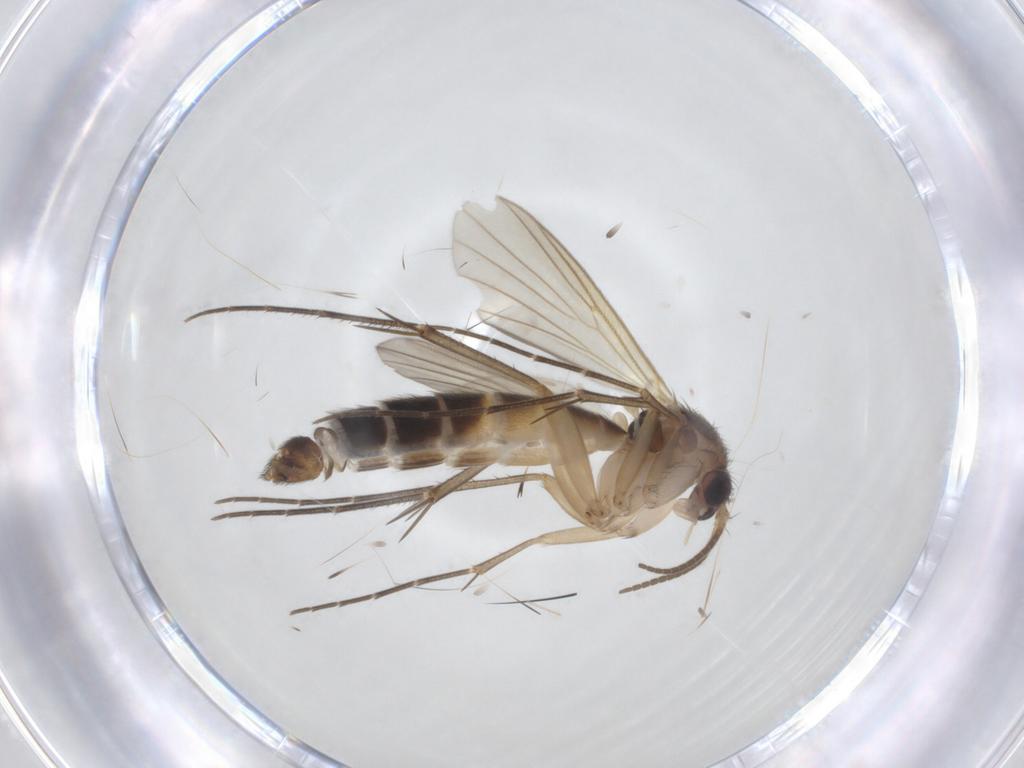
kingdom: Animalia
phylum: Arthropoda
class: Insecta
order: Diptera
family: Mycetophilidae
